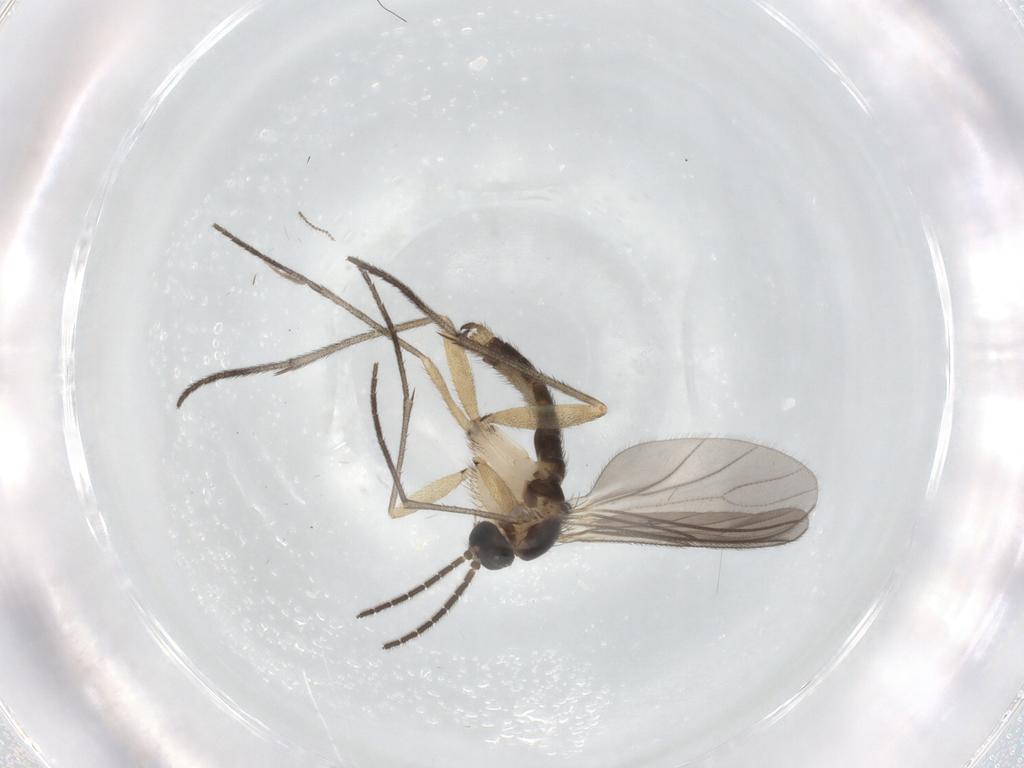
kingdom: Animalia
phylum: Arthropoda
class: Insecta
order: Diptera
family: Sciaridae
